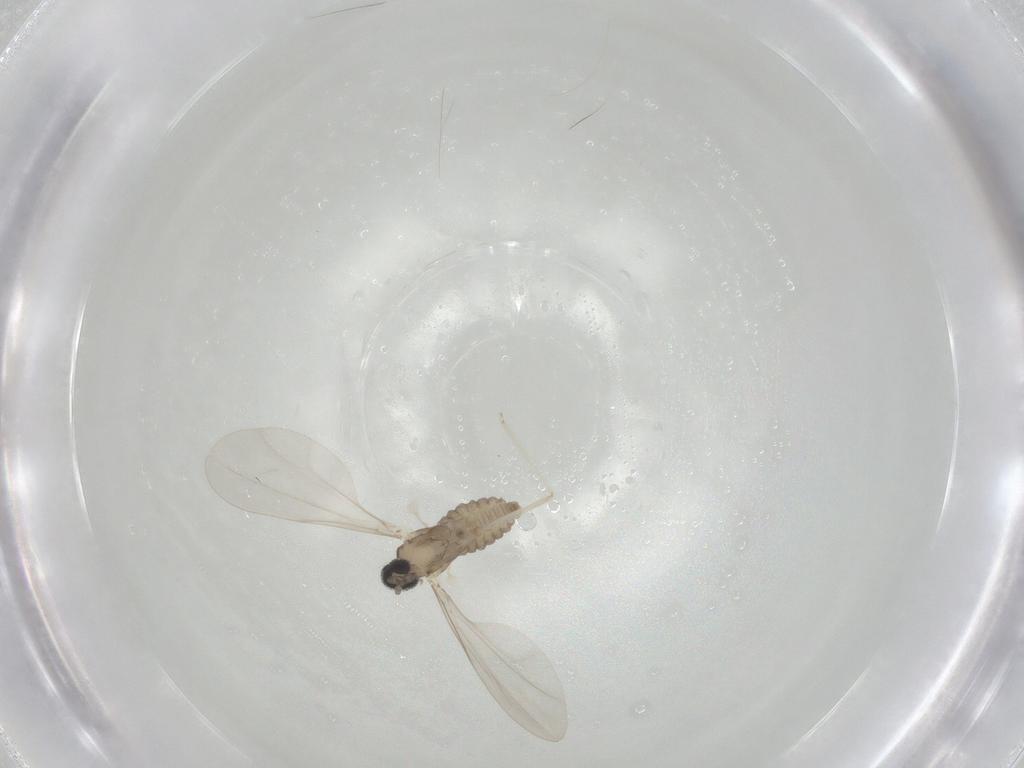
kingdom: Animalia
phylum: Arthropoda
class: Insecta
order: Diptera
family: Cecidomyiidae
